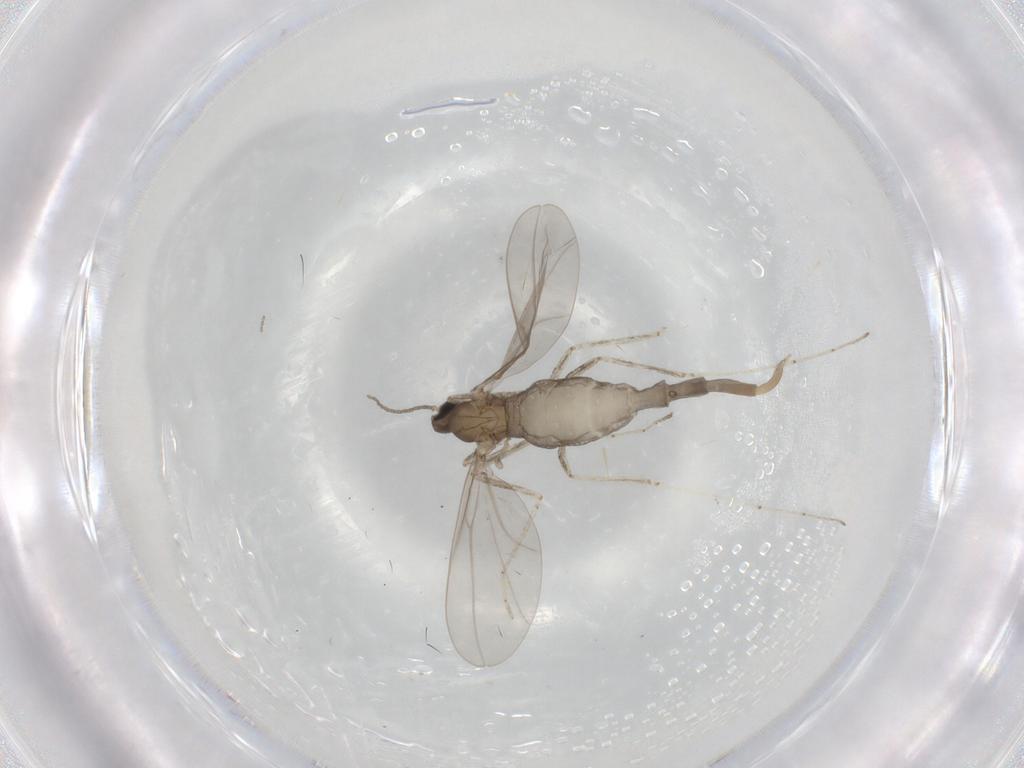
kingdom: Animalia
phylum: Arthropoda
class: Insecta
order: Diptera
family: Cecidomyiidae
